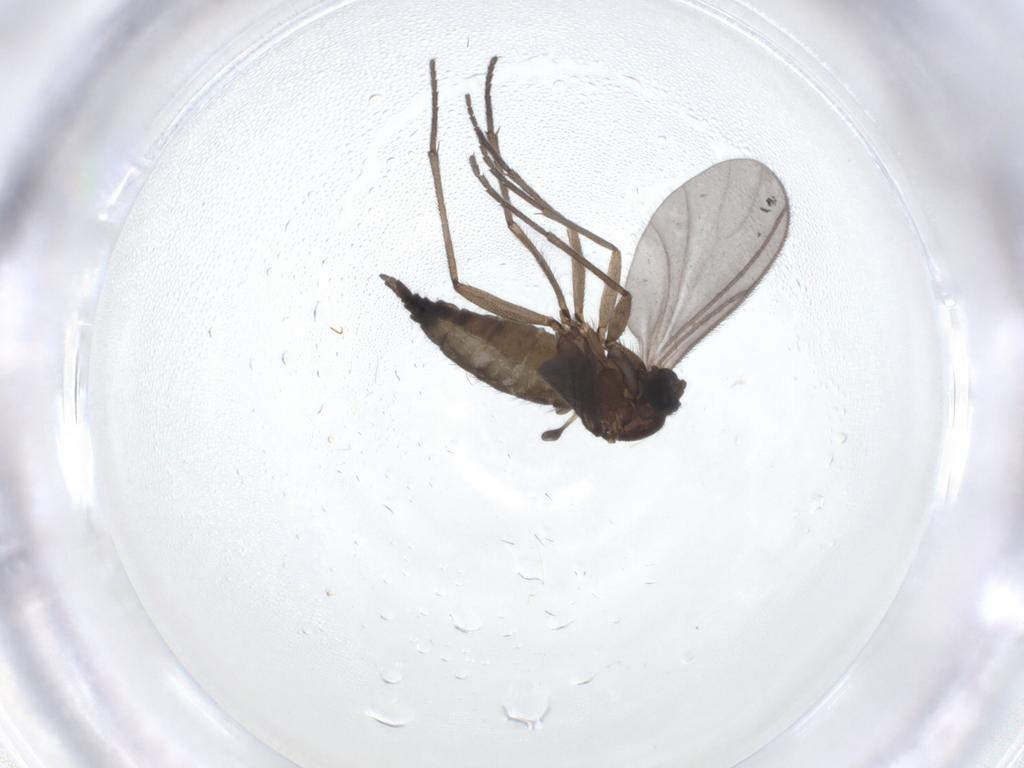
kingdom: Animalia
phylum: Arthropoda
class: Insecta
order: Diptera
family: Sciaridae
